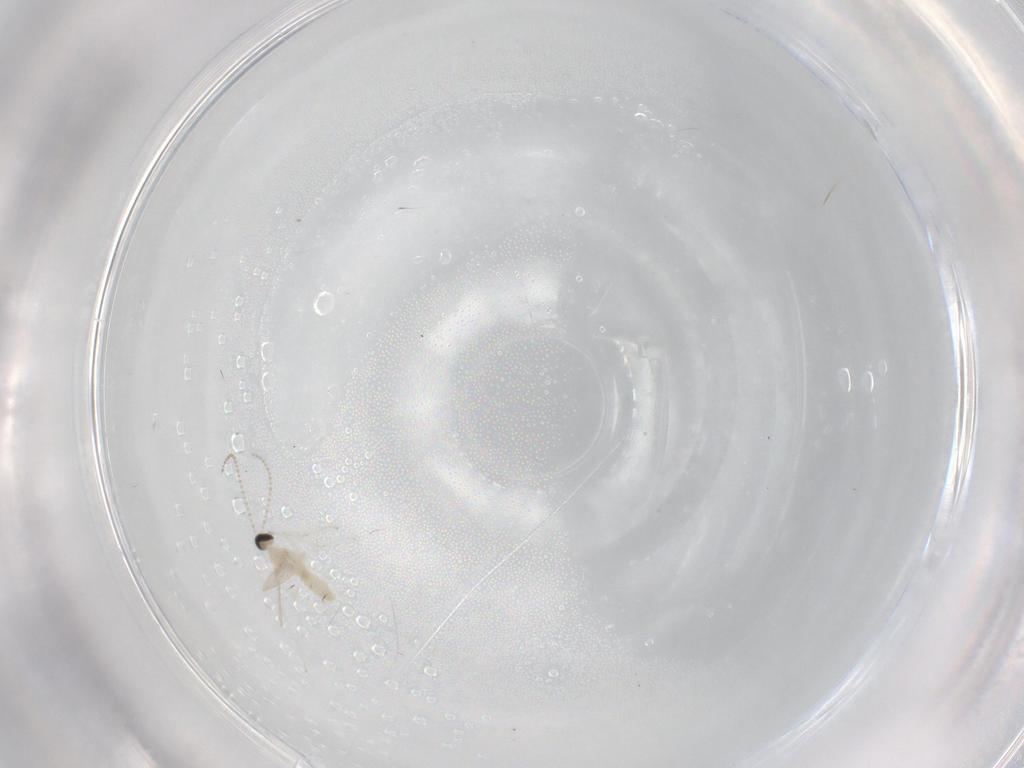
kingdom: Animalia
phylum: Arthropoda
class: Insecta
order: Diptera
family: Cecidomyiidae
